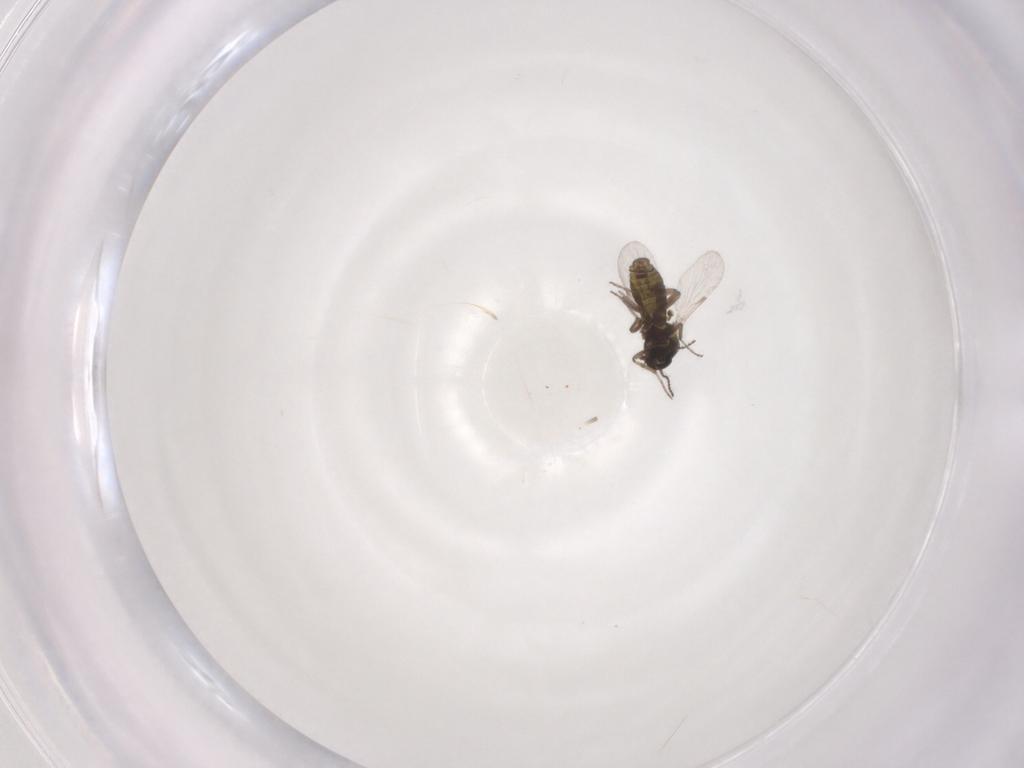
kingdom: Animalia
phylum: Arthropoda
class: Insecta
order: Diptera
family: Ceratopogonidae
